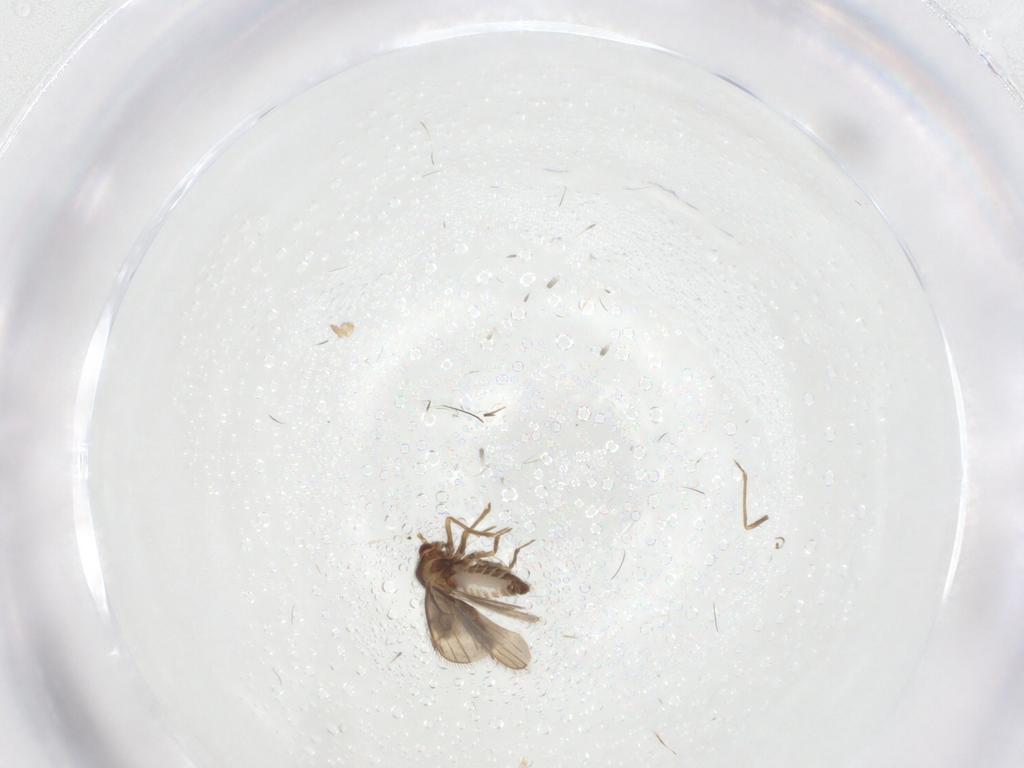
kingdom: Animalia
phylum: Arthropoda
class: Insecta
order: Hemiptera
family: Schizopteridae
